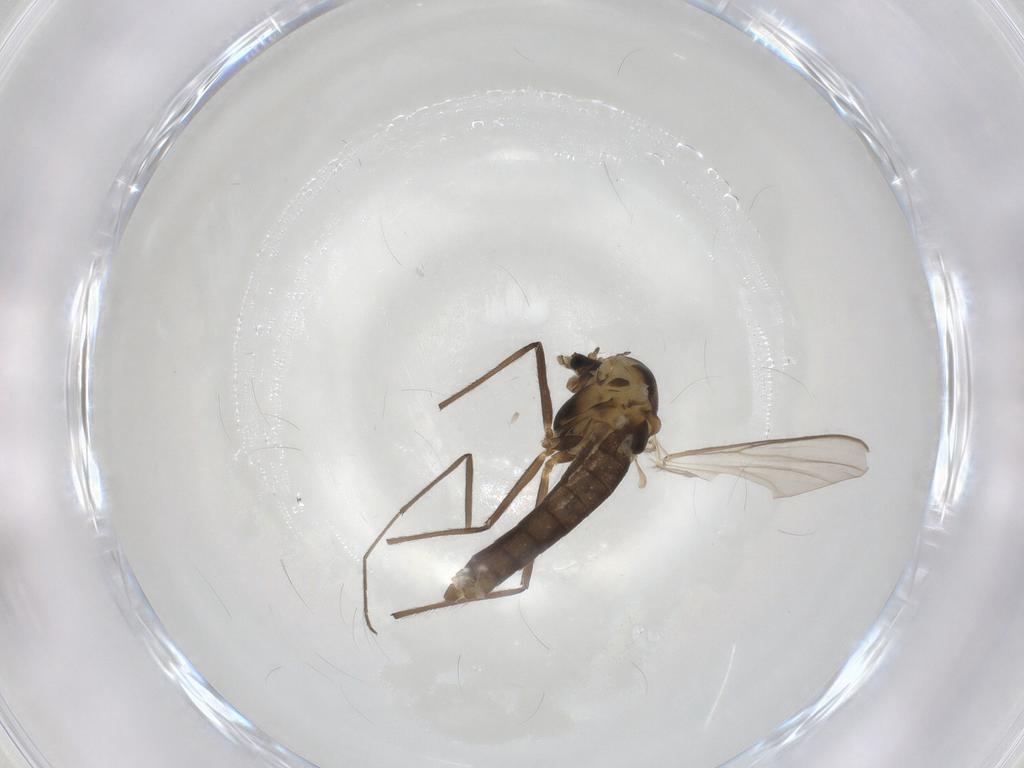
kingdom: Animalia
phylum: Arthropoda
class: Insecta
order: Diptera
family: Chironomidae
